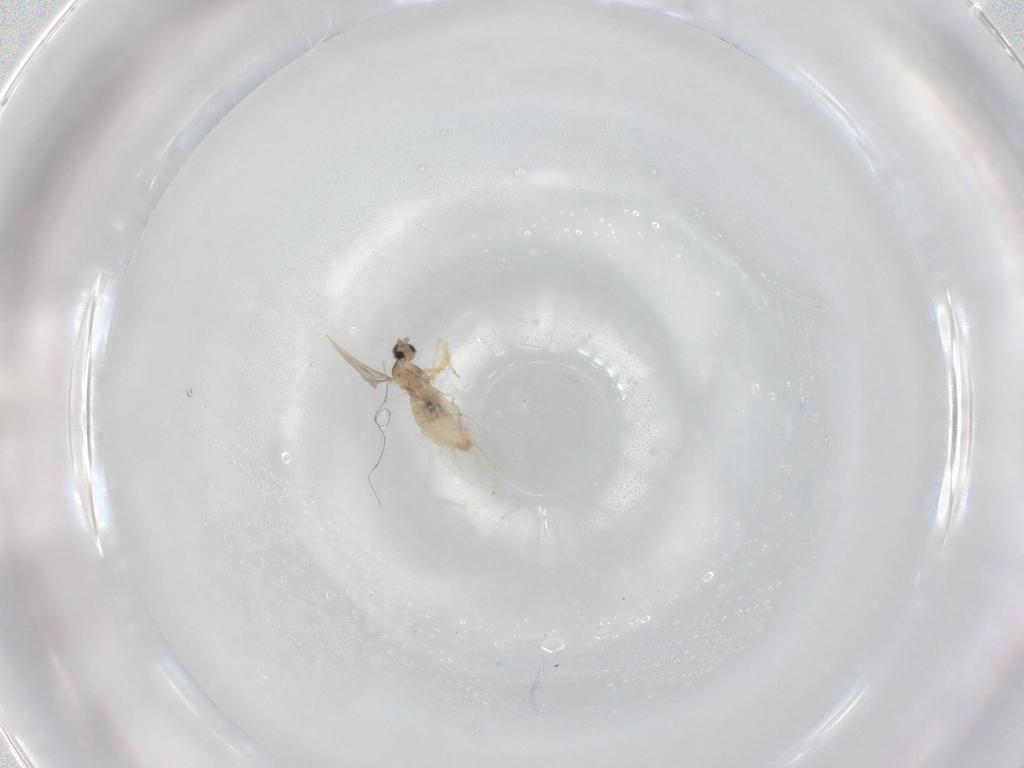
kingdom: Animalia
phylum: Arthropoda
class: Insecta
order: Diptera
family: Cecidomyiidae
